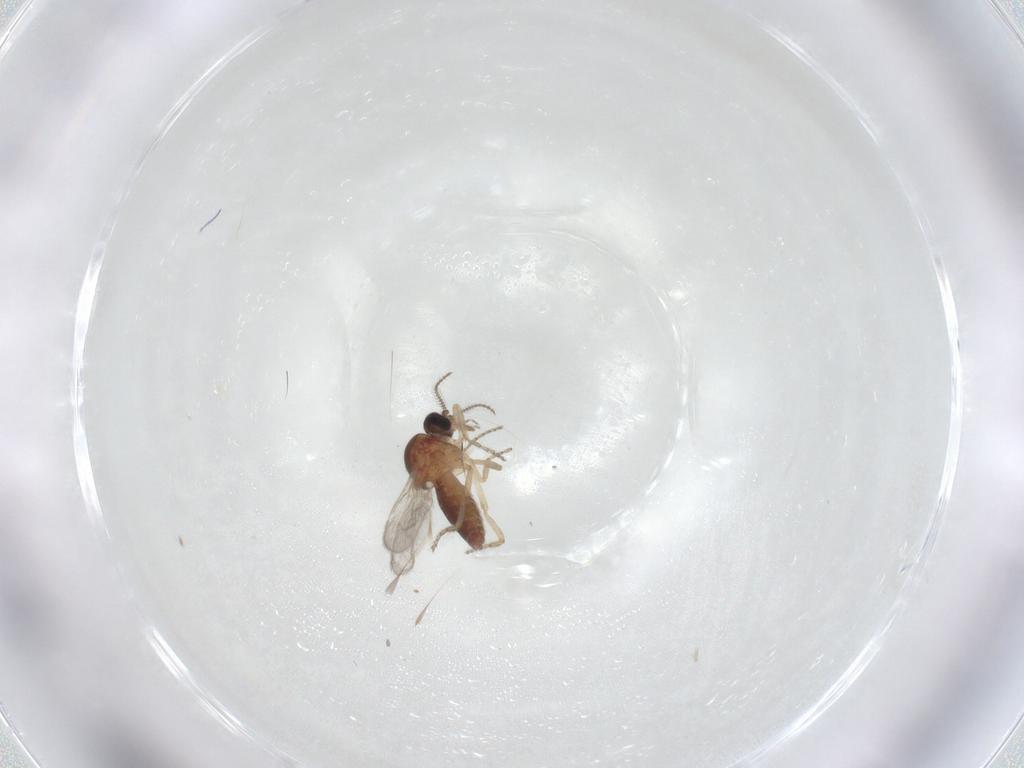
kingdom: Animalia
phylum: Arthropoda
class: Insecta
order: Diptera
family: Ceratopogonidae
